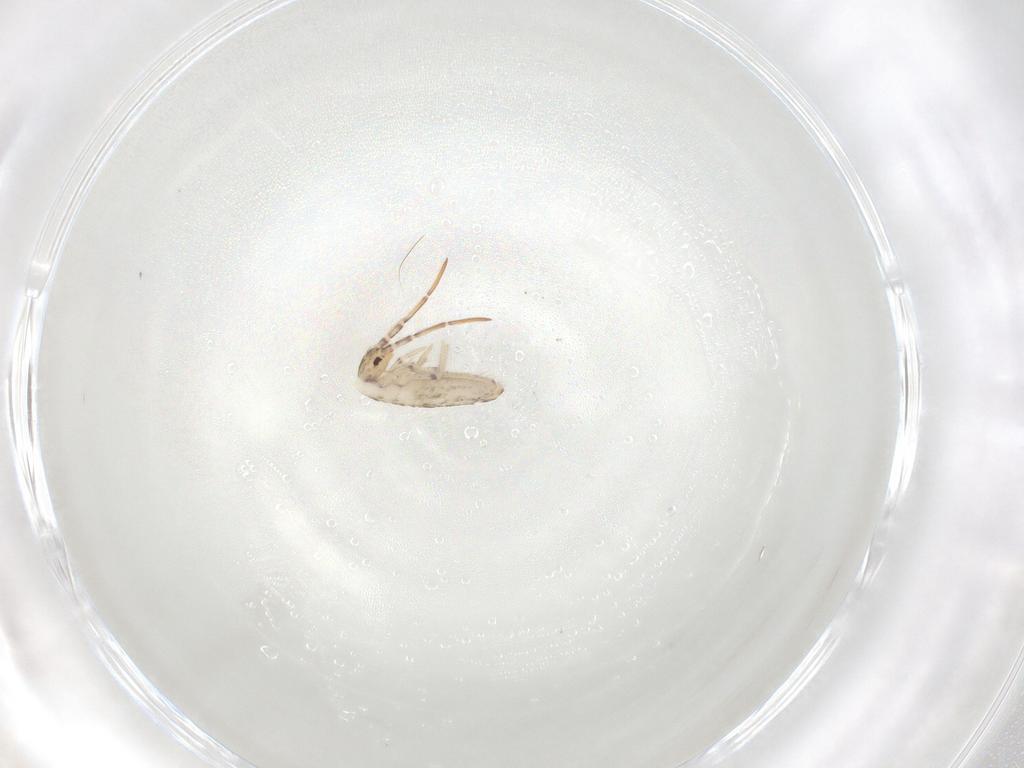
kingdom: Animalia
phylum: Arthropoda
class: Collembola
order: Entomobryomorpha
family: Entomobryidae
